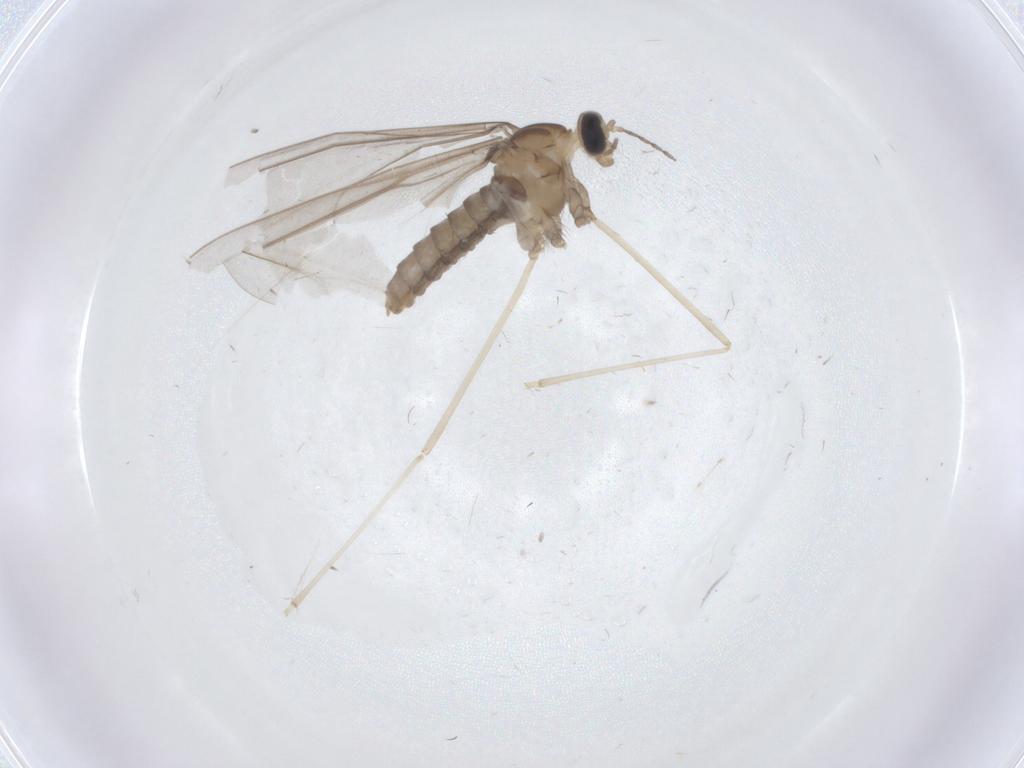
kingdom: Animalia
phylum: Arthropoda
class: Insecta
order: Diptera
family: Cecidomyiidae
